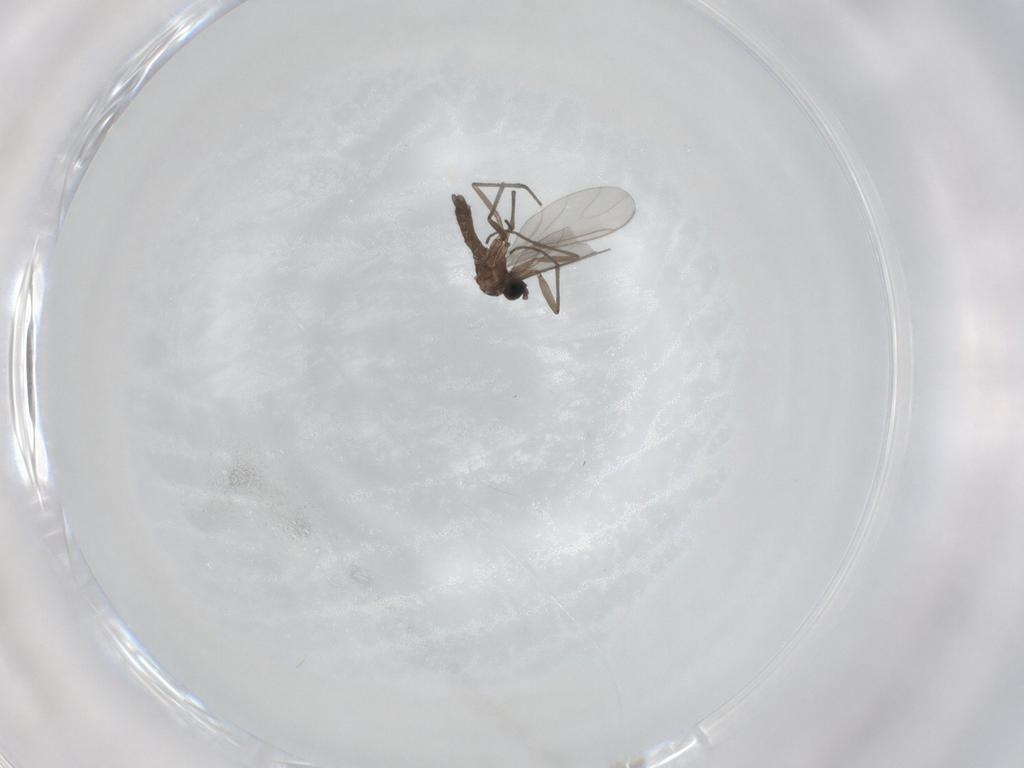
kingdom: Animalia
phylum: Arthropoda
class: Insecta
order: Diptera
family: Sciaridae
